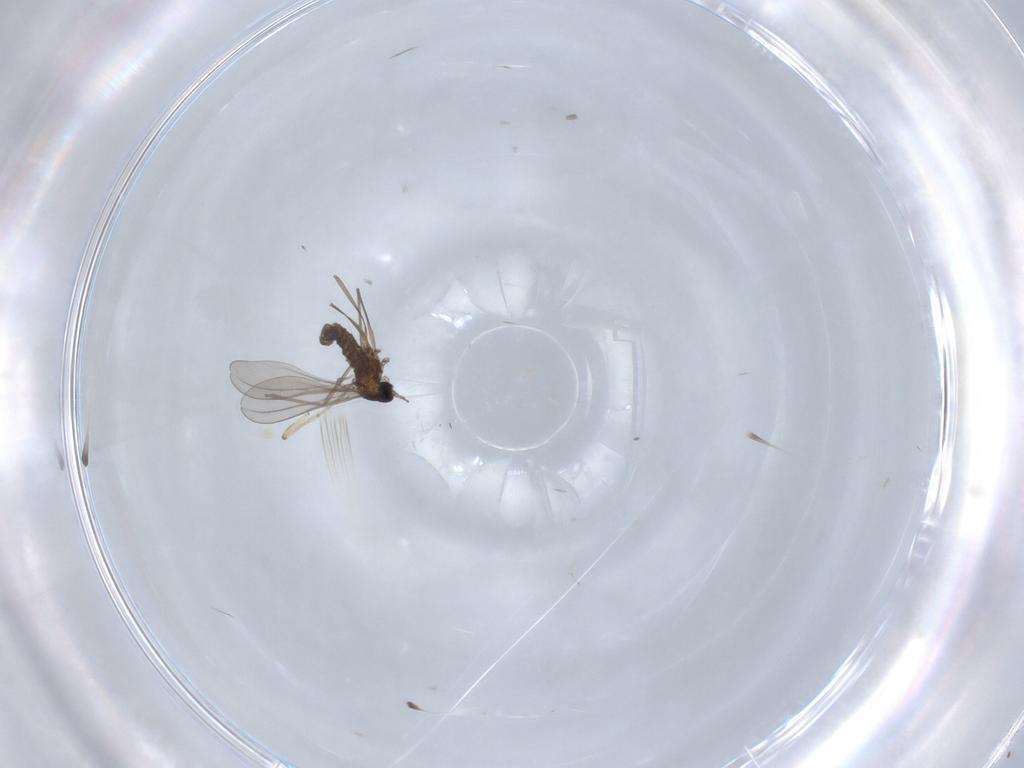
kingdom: Animalia
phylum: Arthropoda
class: Insecta
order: Diptera
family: Cecidomyiidae
